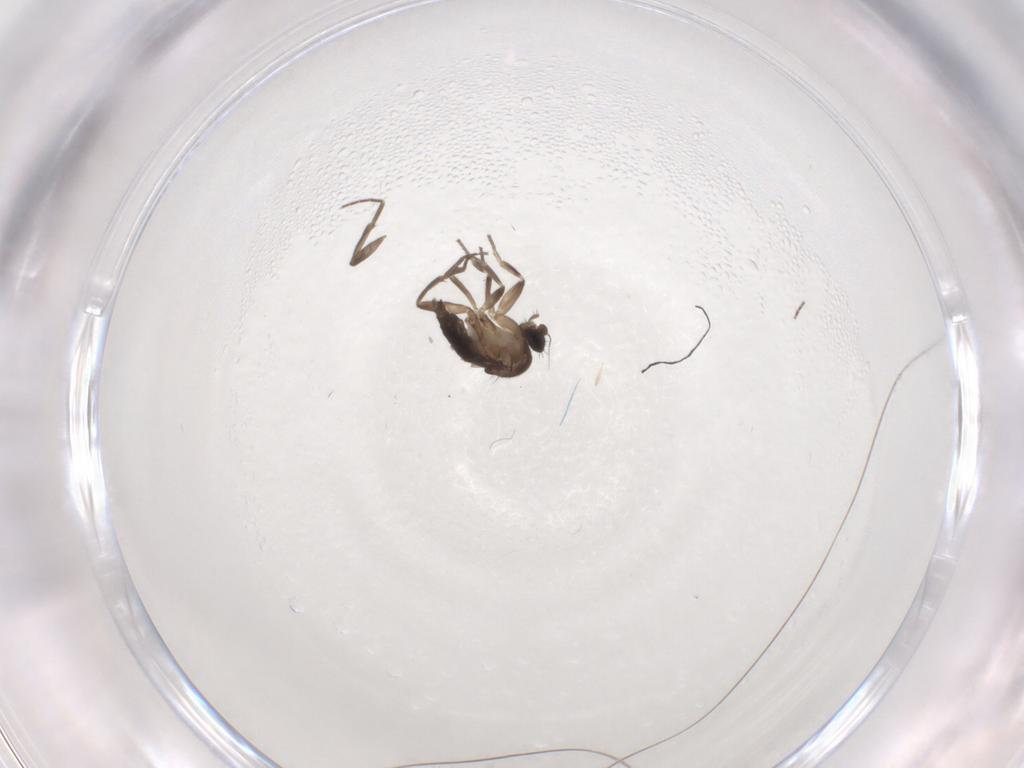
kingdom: Animalia
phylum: Arthropoda
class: Insecta
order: Diptera
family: Phoridae
